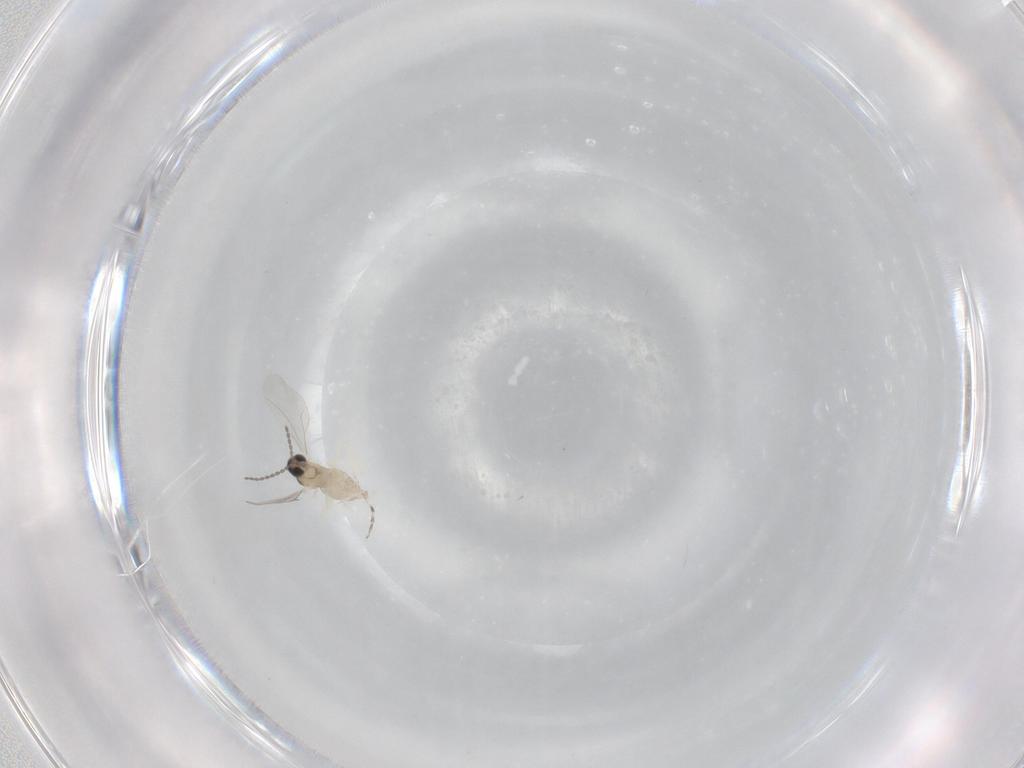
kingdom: Animalia
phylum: Arthropoda
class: Insecta
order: Diptera
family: Cecidomyiidae
